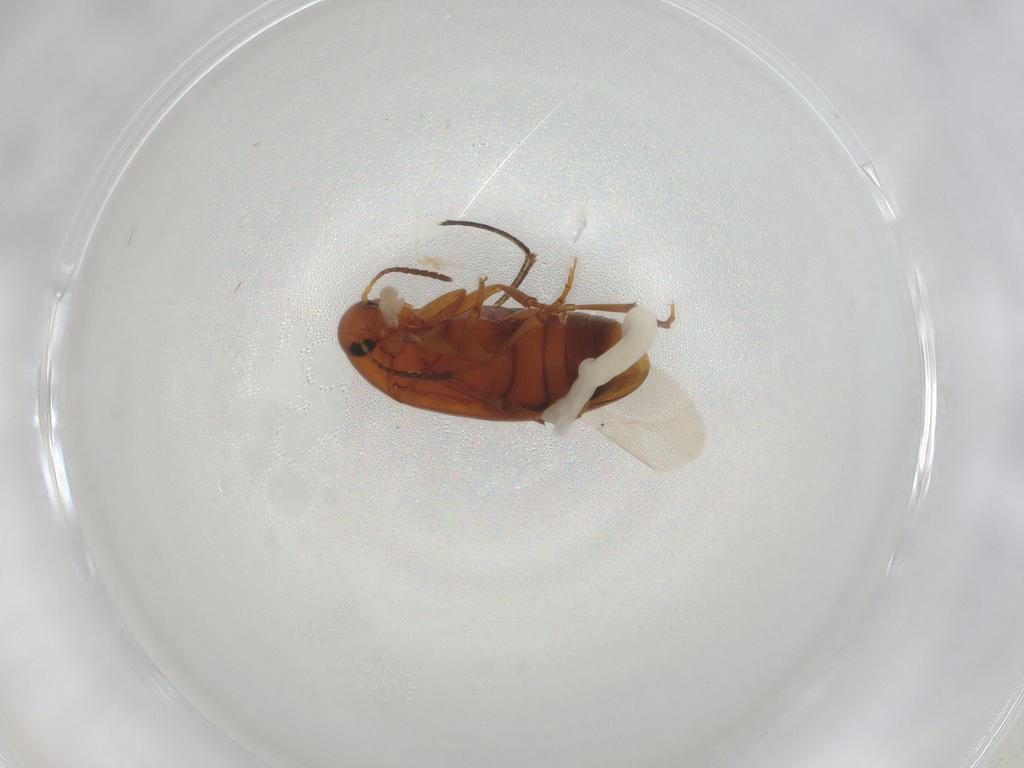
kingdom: Animalia
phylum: Arthropoda
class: Insecta
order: Coleoptera
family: Scraptiidae
